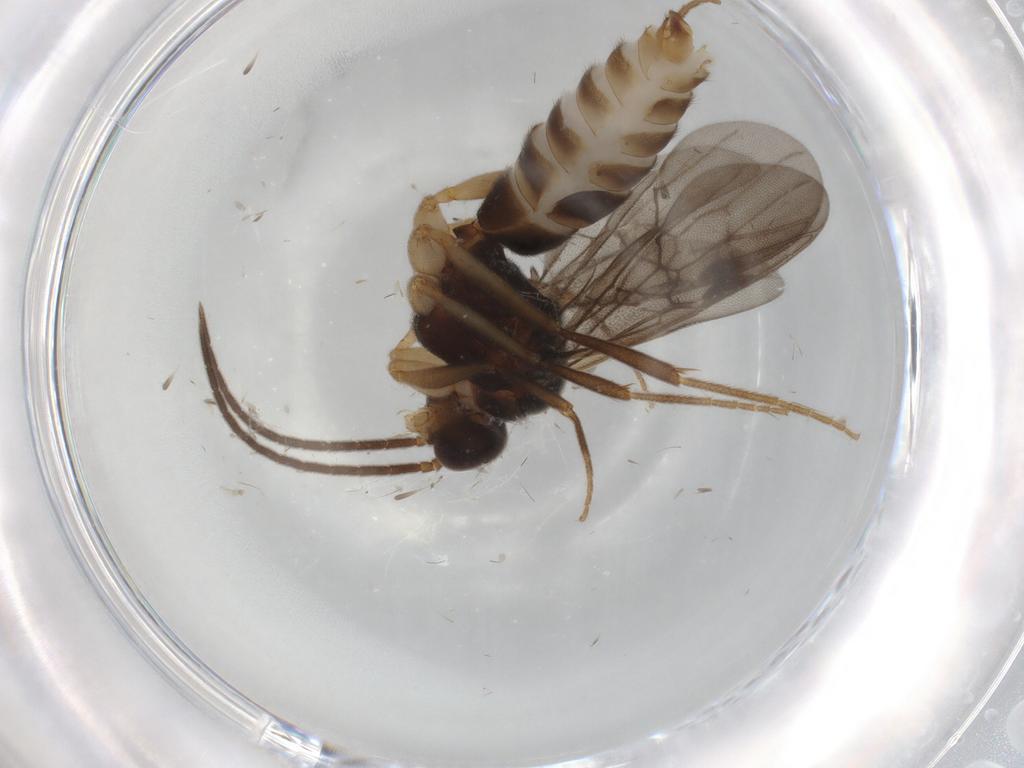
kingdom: Animalia
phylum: Arthropoda
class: Insecta
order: Hymenoptera
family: Formicidae
